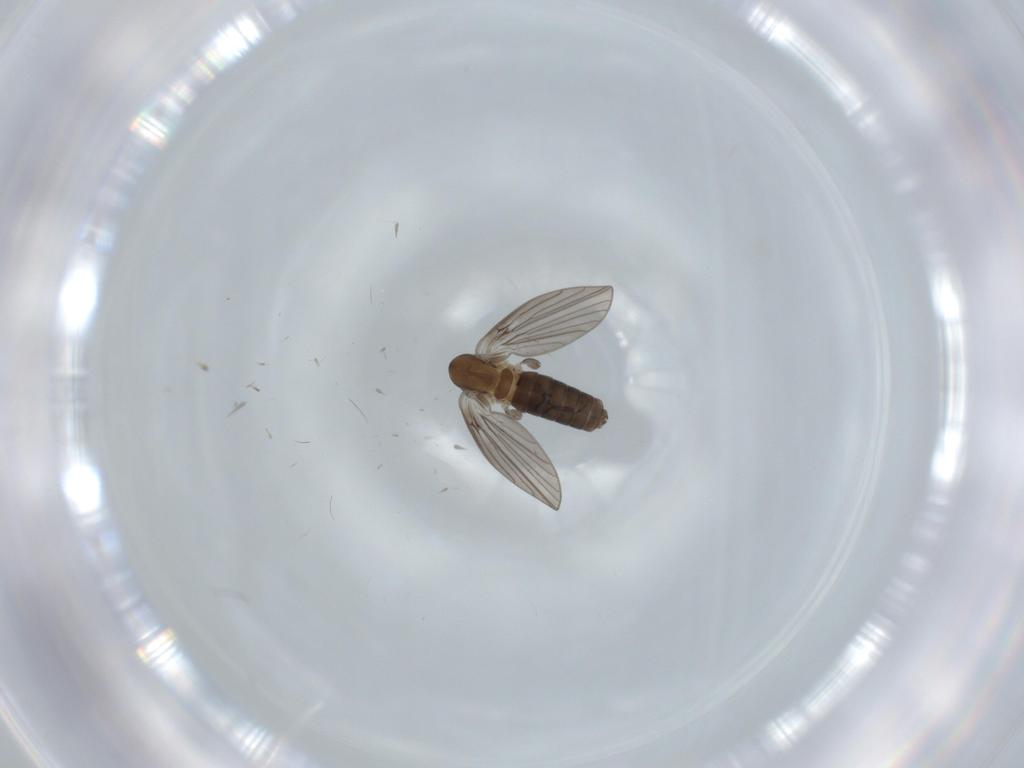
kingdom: Animalia
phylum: Arthropoda
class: Insecta
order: Diptera
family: Psychodidae
